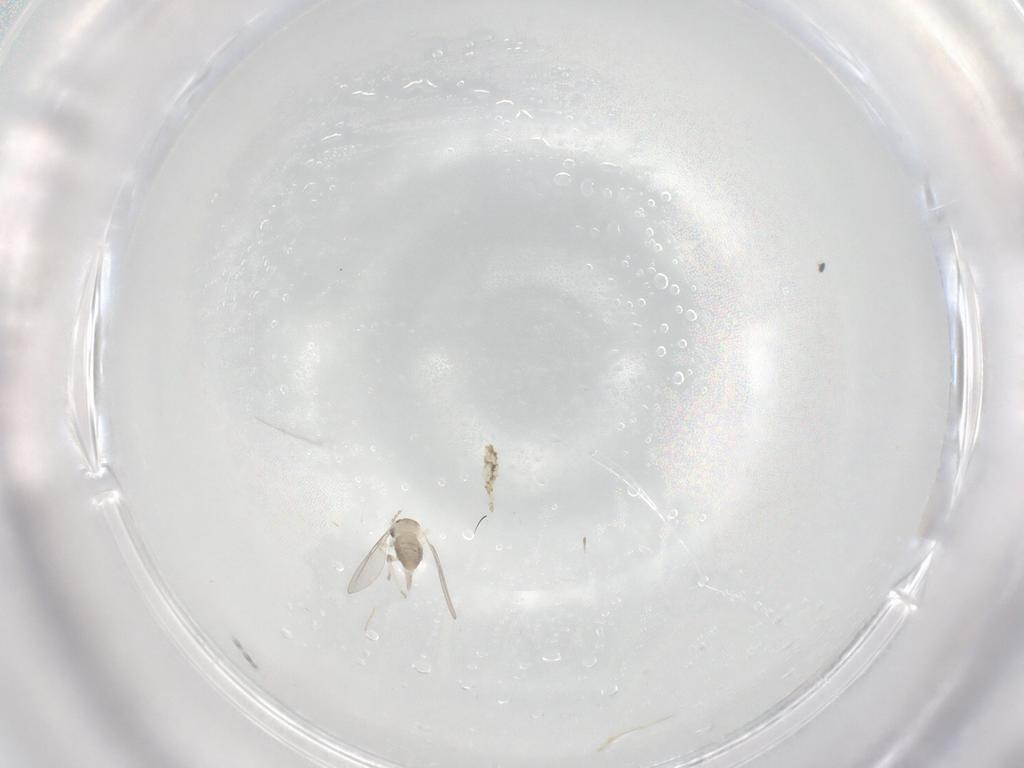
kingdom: Animalia
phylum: Arthropoda
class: Insecta
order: Diptera
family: Cecidomyiidae
